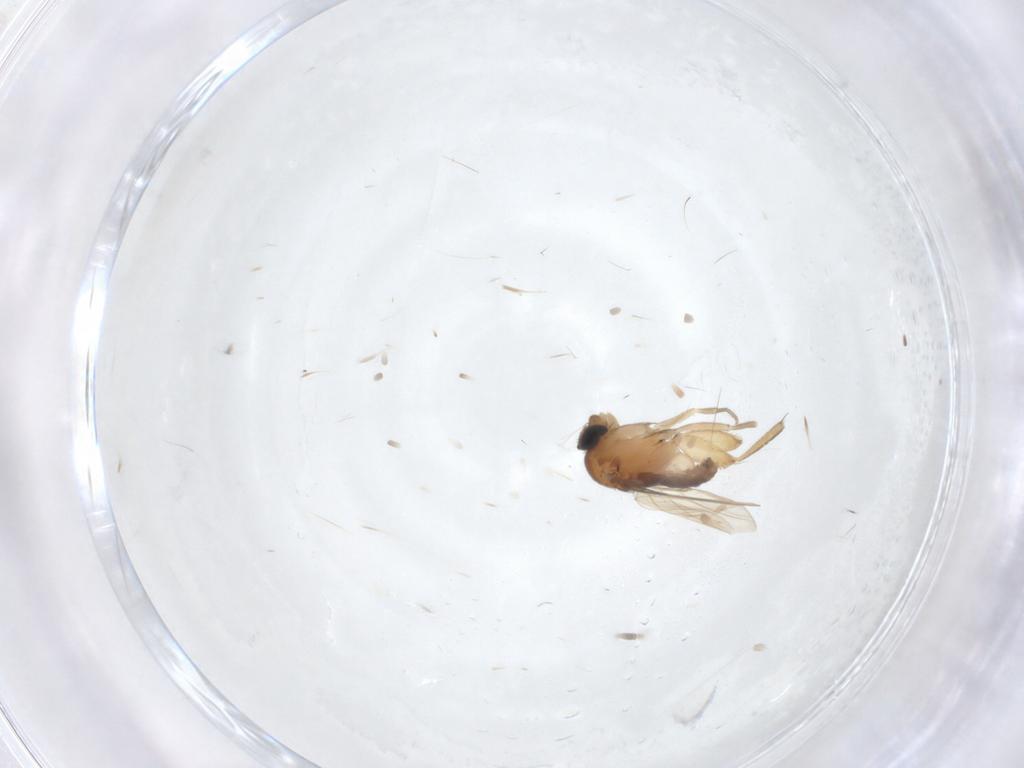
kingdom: Animalia
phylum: Arthropoda
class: Insecta
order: Diptera
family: Phoridae
